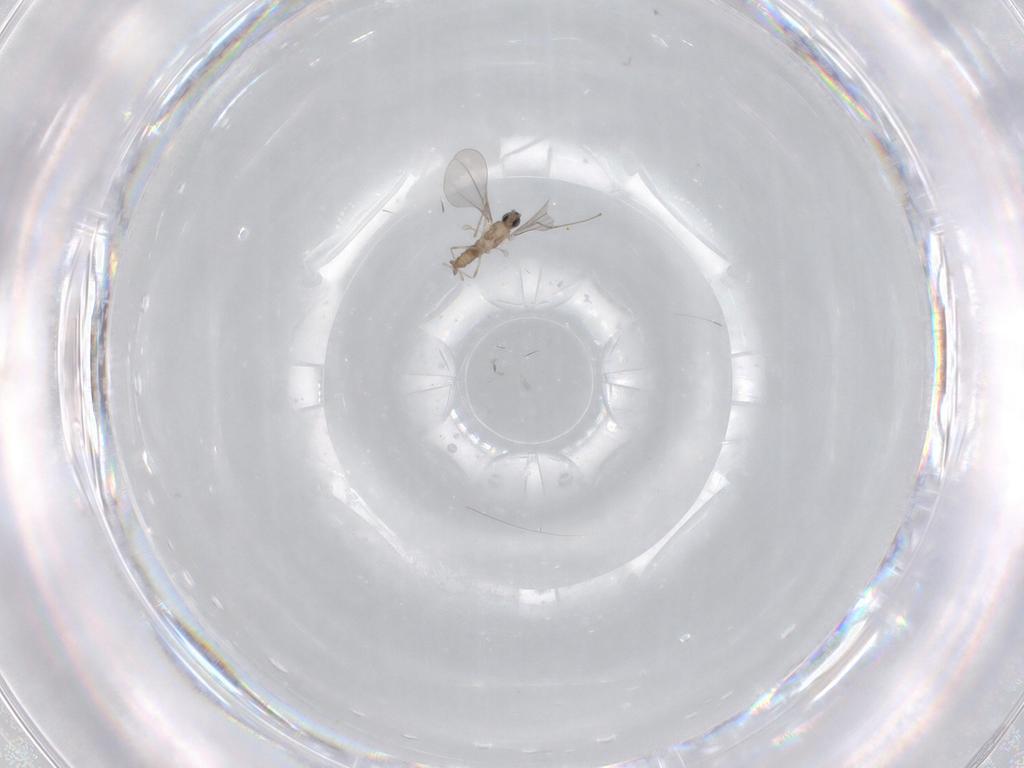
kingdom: Animalia
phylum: Arthropoda
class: Insecta
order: Diptera
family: Cecidomyiidae
